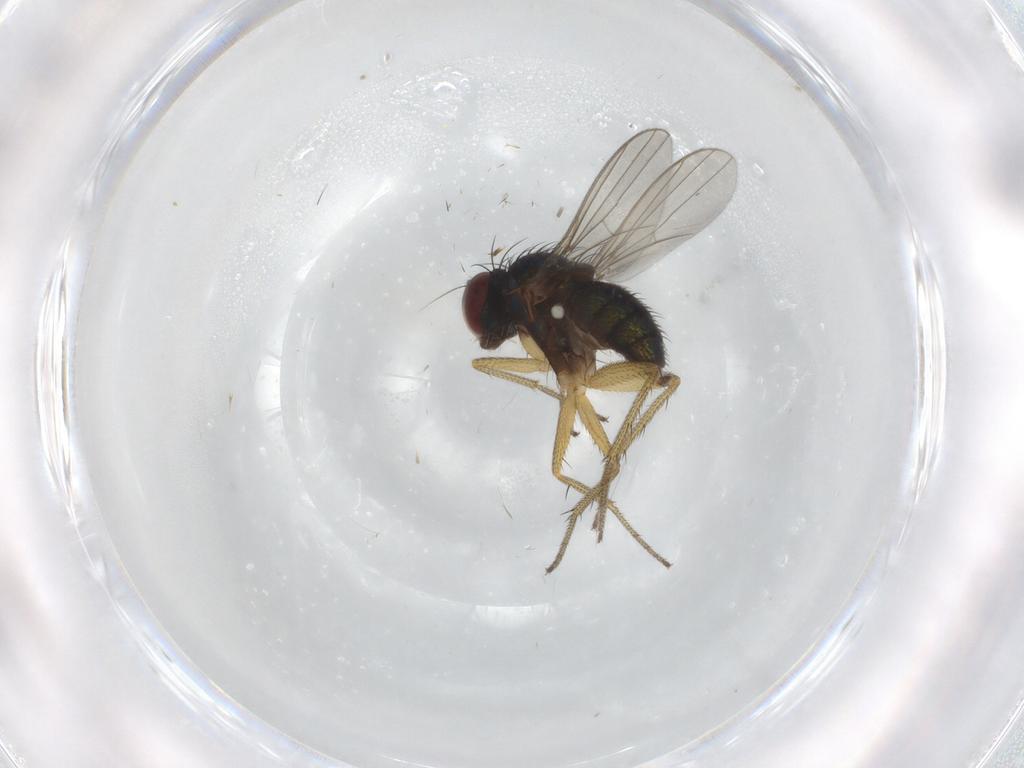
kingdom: Animalia
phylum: Arthropoda
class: Insecta
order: Diptera
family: Dolichopodidae
